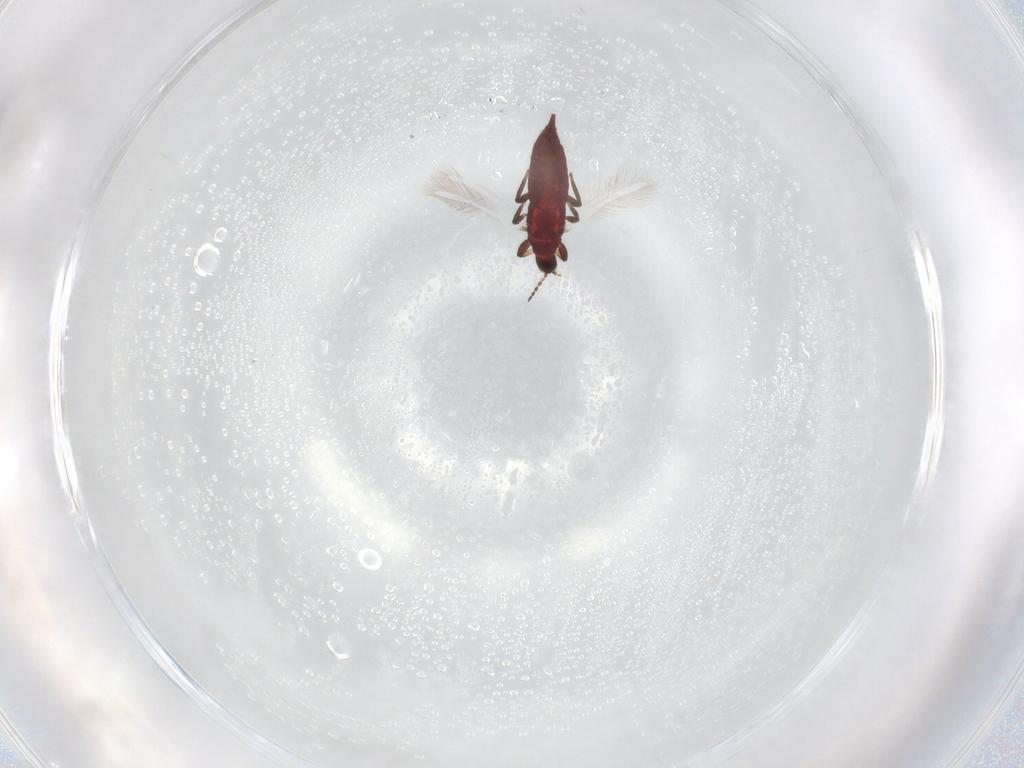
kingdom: Animalia
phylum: Arthropoda
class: Insecta
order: Thysanoptera
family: Phlaeothripidae
